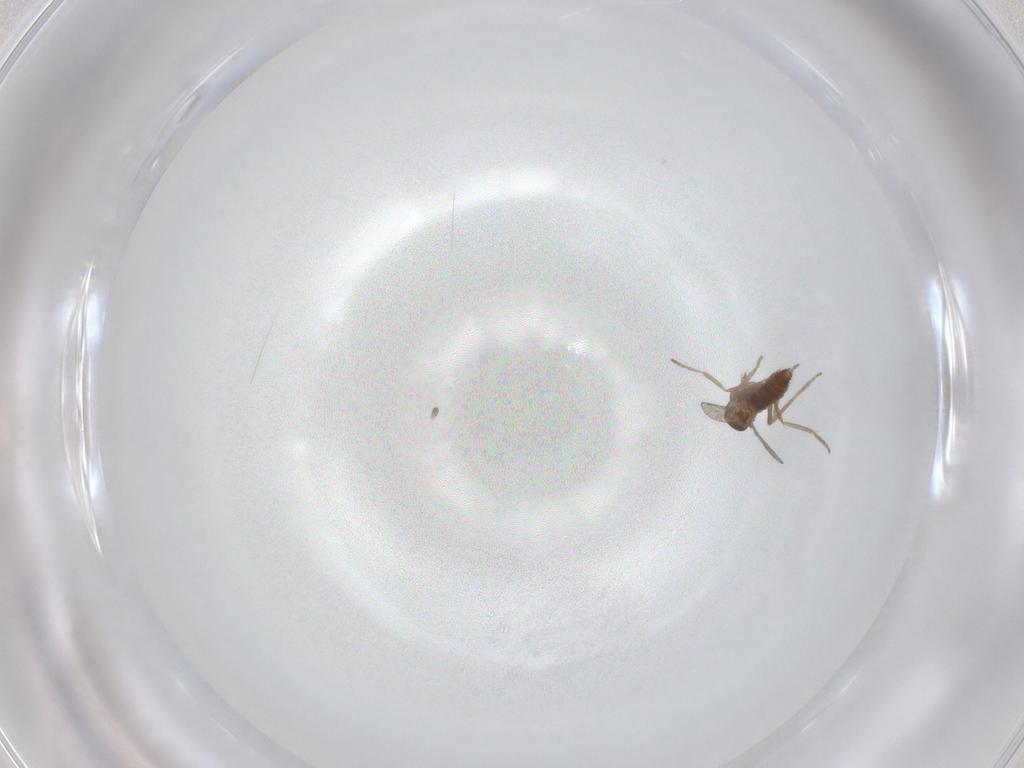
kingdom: Animalia
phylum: Arthropoda
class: Insecta
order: Diptera
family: Ceratopogonidae
